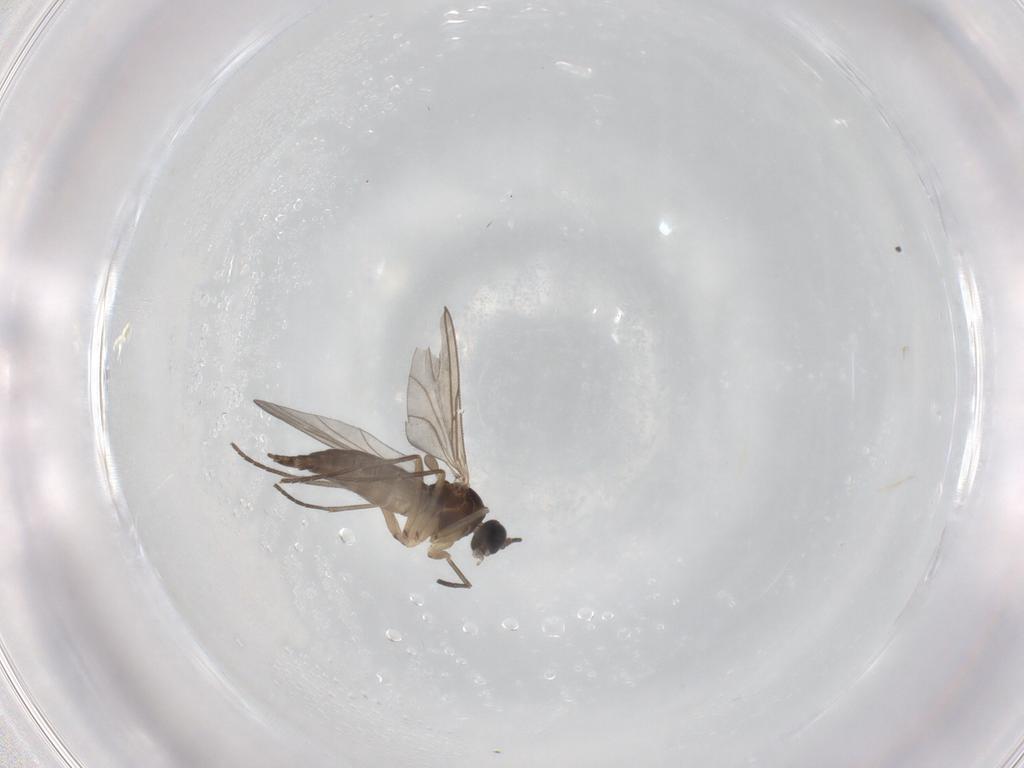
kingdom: Animalia
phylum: Arthropoda
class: Insecta
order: Diptera
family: Sciaridae
